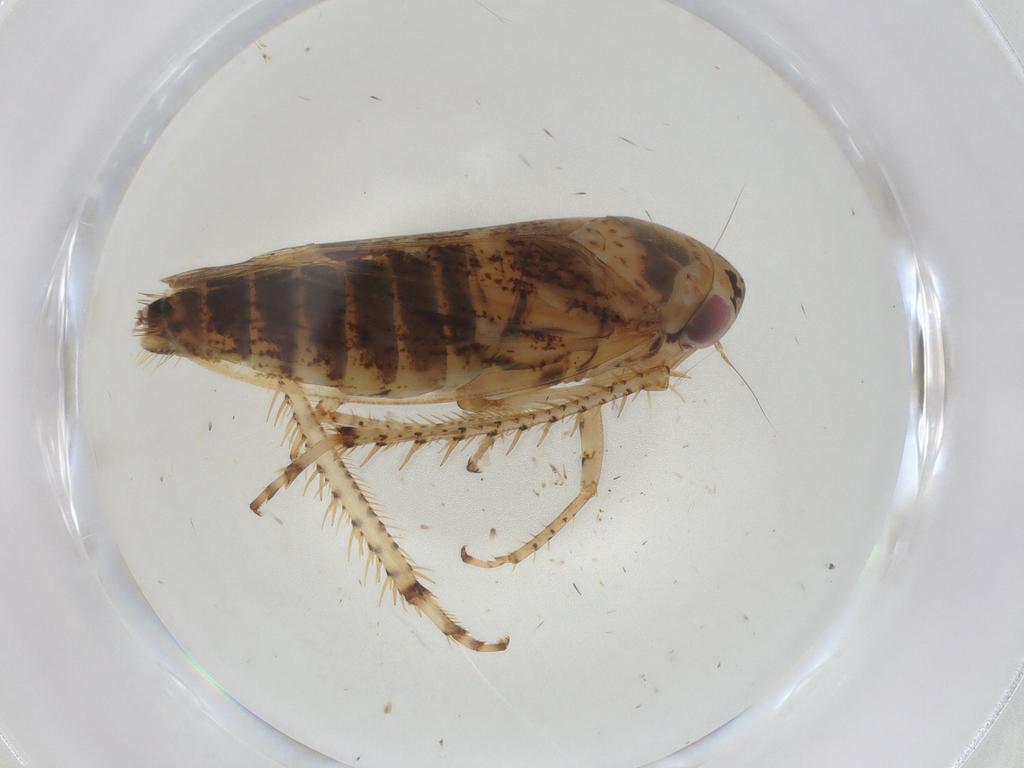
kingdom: Animalia
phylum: Arthropoda
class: Insecta
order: Hemiptera
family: Cicadellidae
